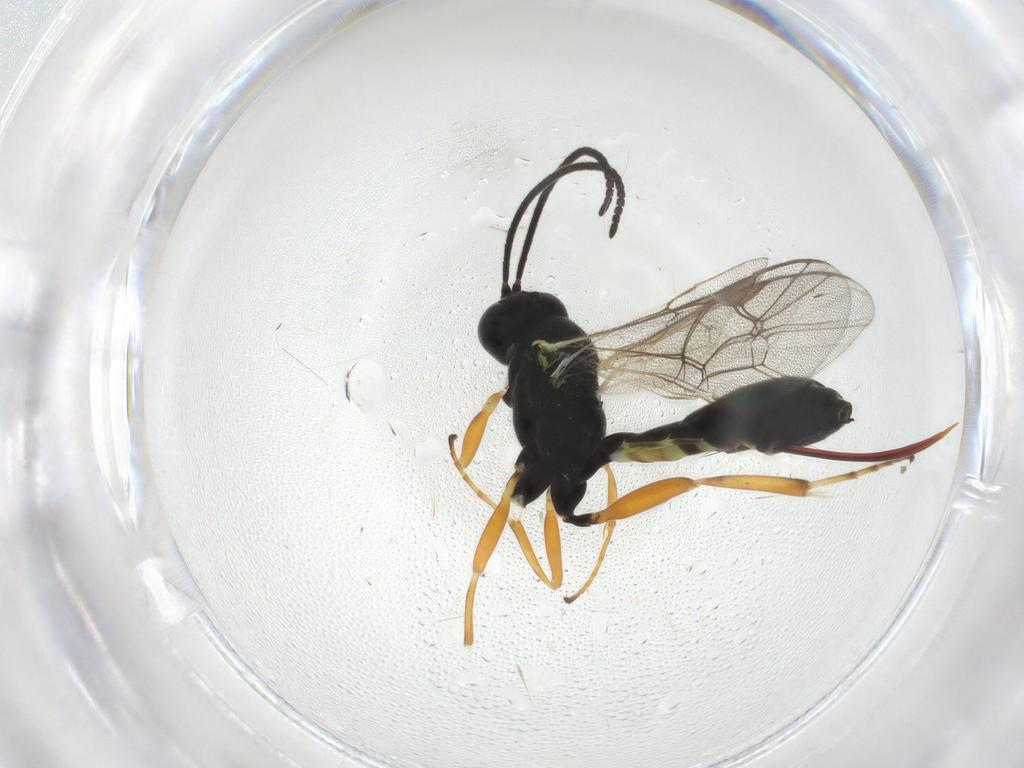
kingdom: Animalia
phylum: Arthropoda
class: Insecta
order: Hymenoptera
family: Ichneumonidae
